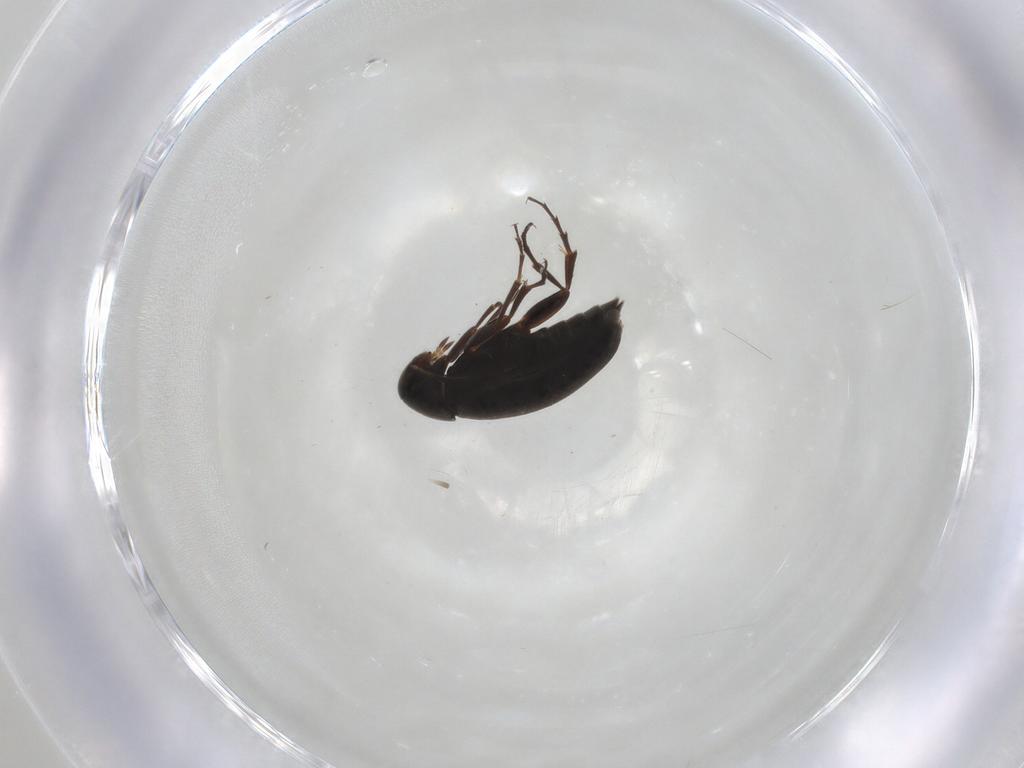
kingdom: Animalia
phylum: Arthropoda
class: Insecta
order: Coleoptera
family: Scraptiidae
